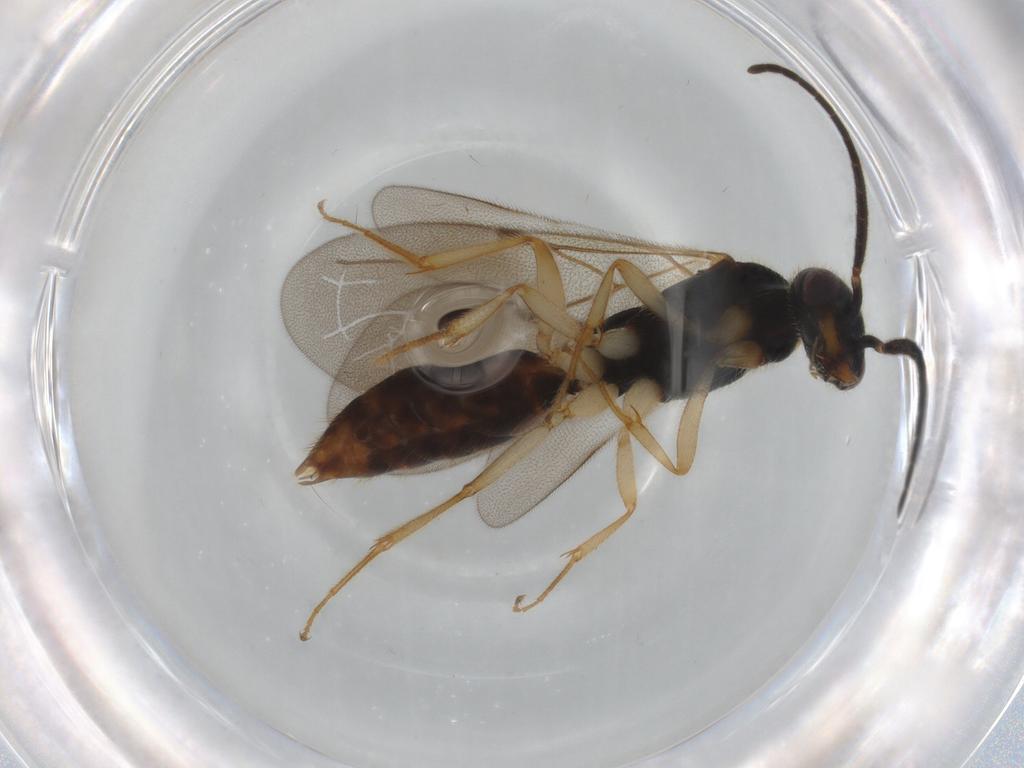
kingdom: Animalia
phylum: Arthropoda
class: Insecta
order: Hymenoptera
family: Bethylidae
